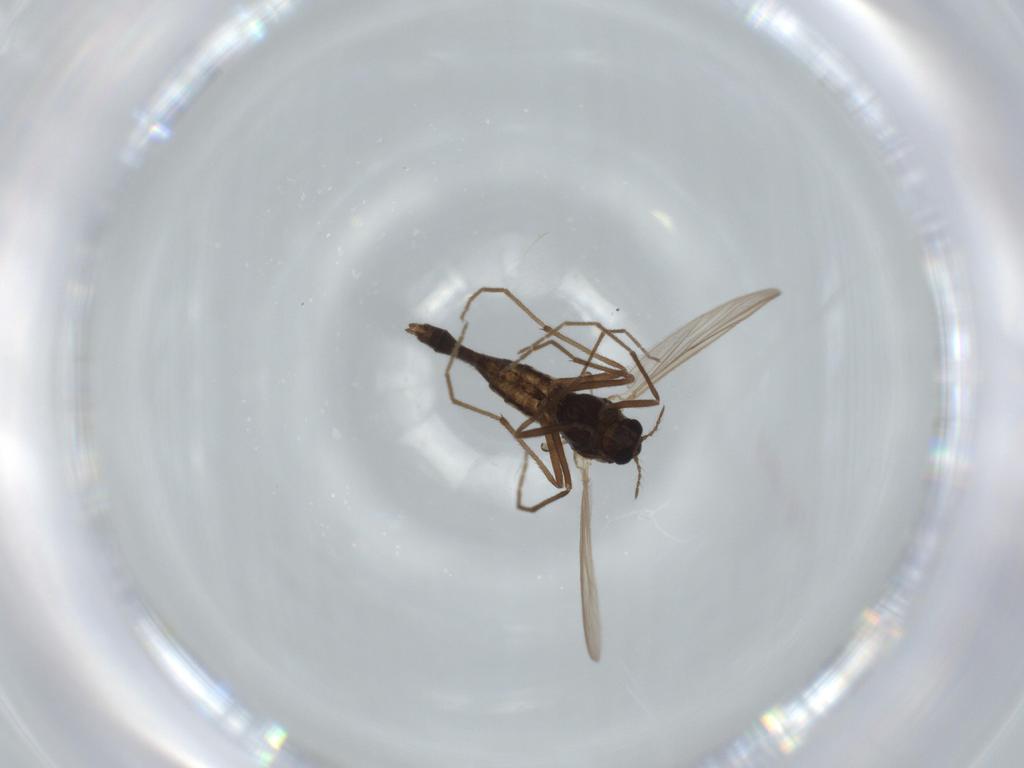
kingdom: Animalia
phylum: Arthropoda
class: Insecta
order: Diptera
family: Chironomidae
